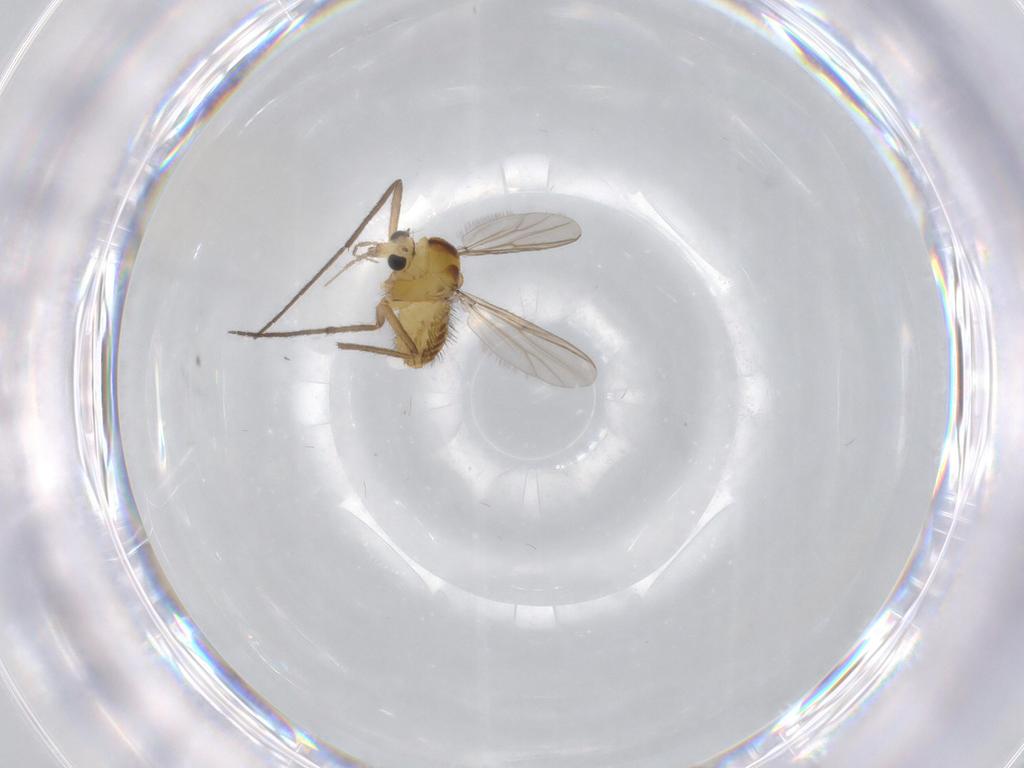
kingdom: Animalia
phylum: Arthropoda
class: Insecta
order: Diptera
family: Chironomidae
